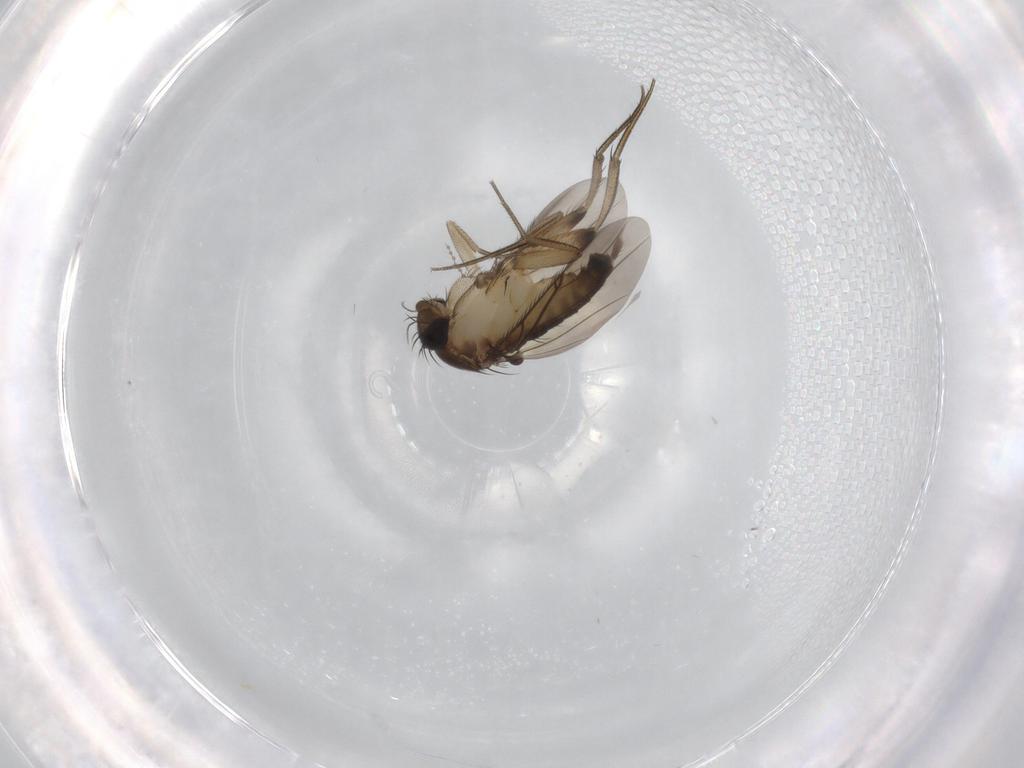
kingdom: Animalia
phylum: Arthropoda
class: Insecta
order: Diptera
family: Phoridae
